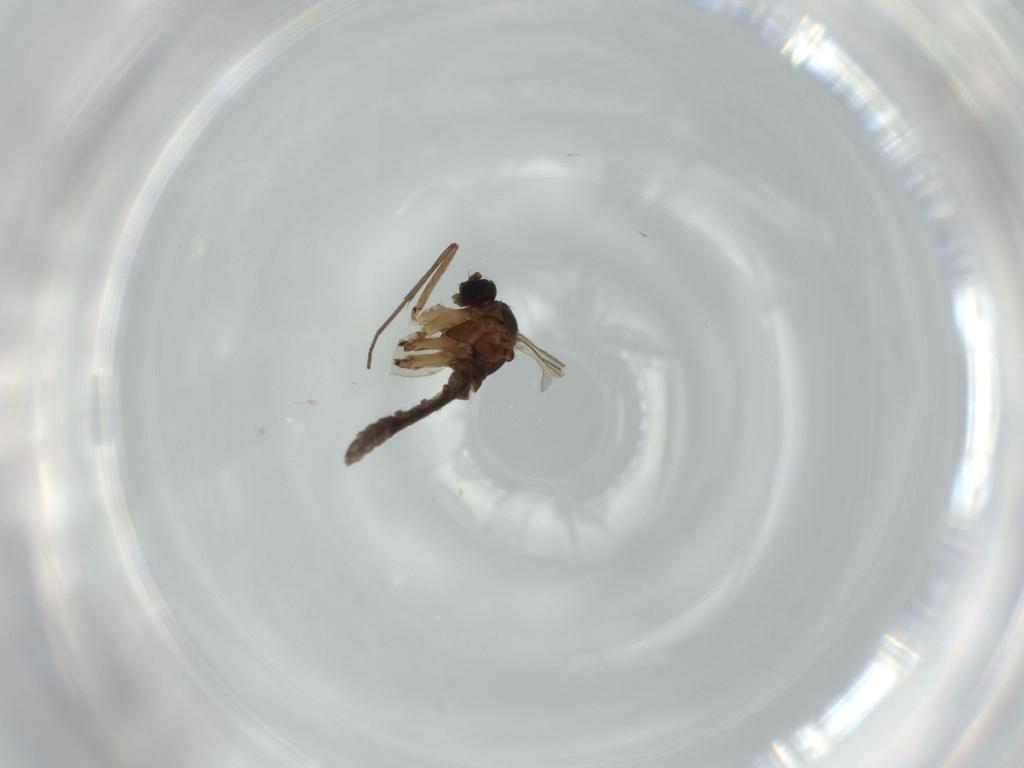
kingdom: Animalia
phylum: Arthropoda
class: Insecta
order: Diptera
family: Chironomidae
